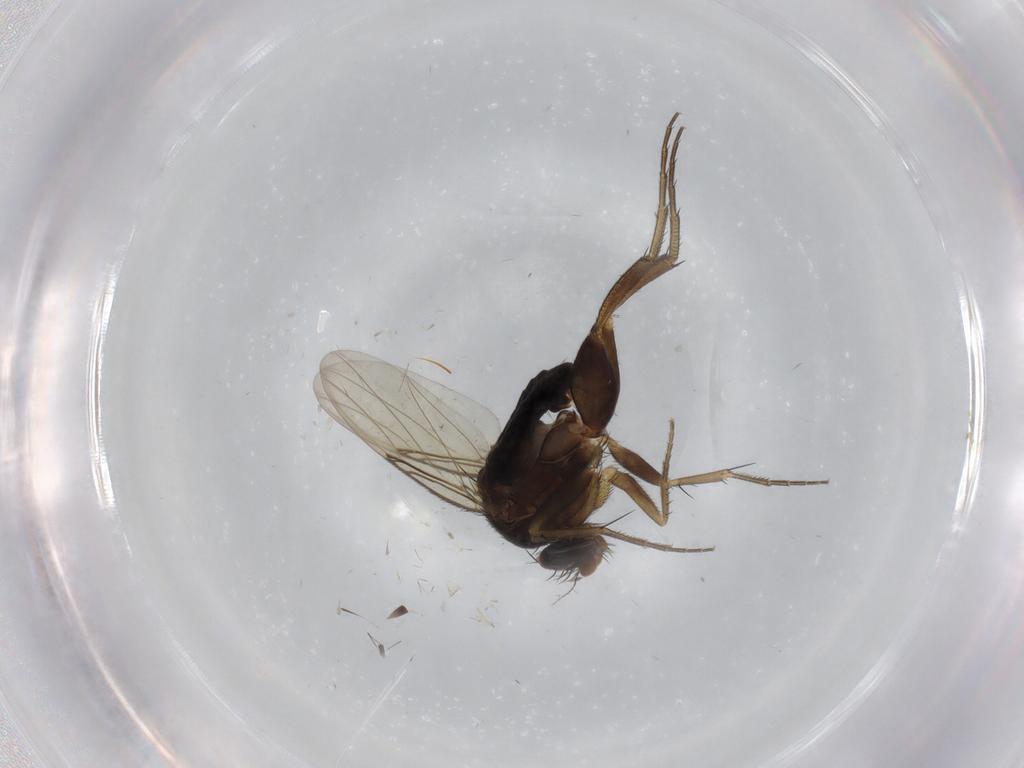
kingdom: Animalia
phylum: Arthropoda
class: Insecta
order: Diptera
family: Phoridae
